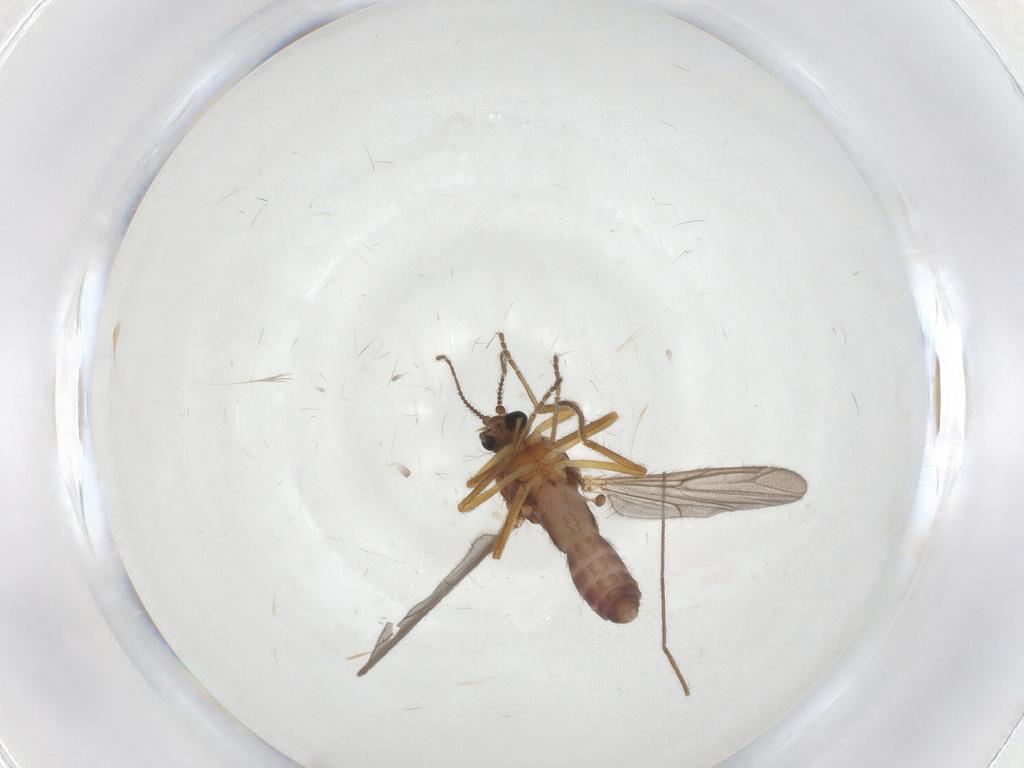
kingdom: Animalia
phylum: Arthropoda
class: Insecta
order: Diptera
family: Ceratopogonidae
